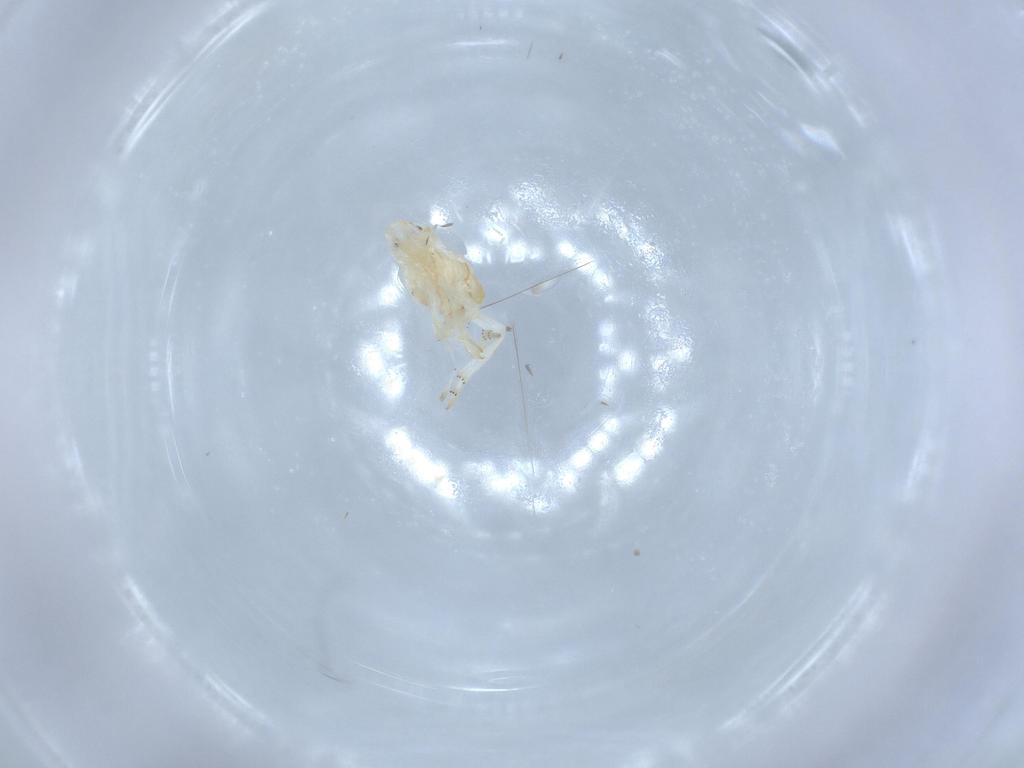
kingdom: Animalia
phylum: Arthropoda
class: Insecta
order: Hemiptera
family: Flatidae
